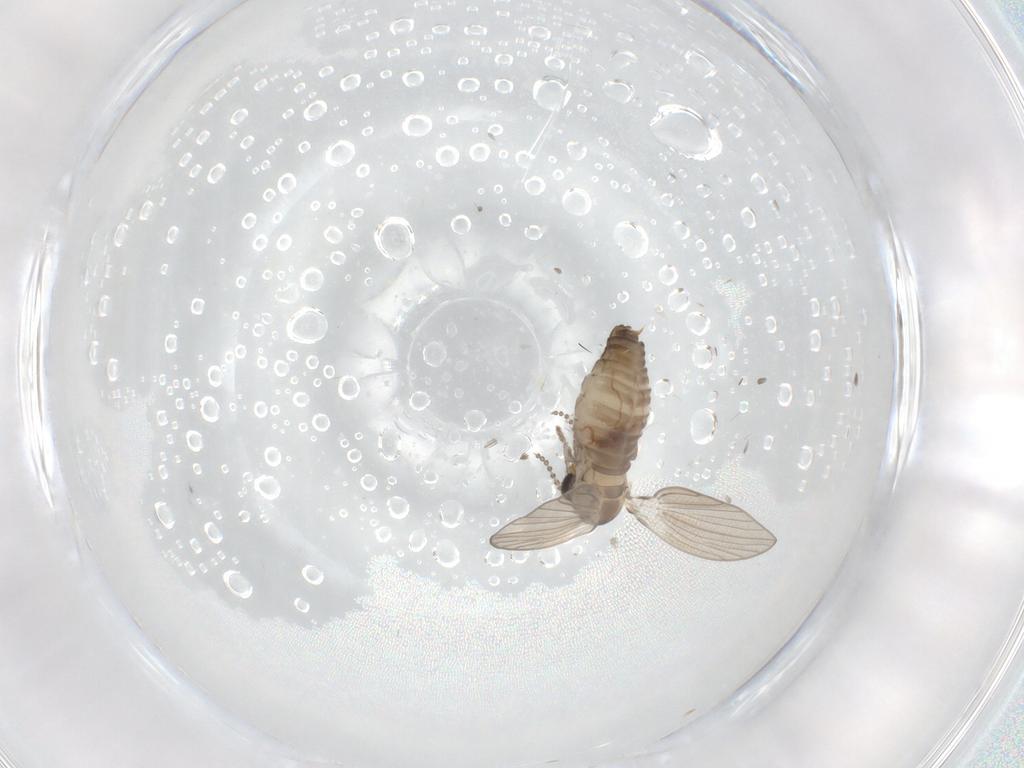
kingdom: Animalia
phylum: Arthropoda
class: Insecta
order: Diptera
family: Psychodidae
